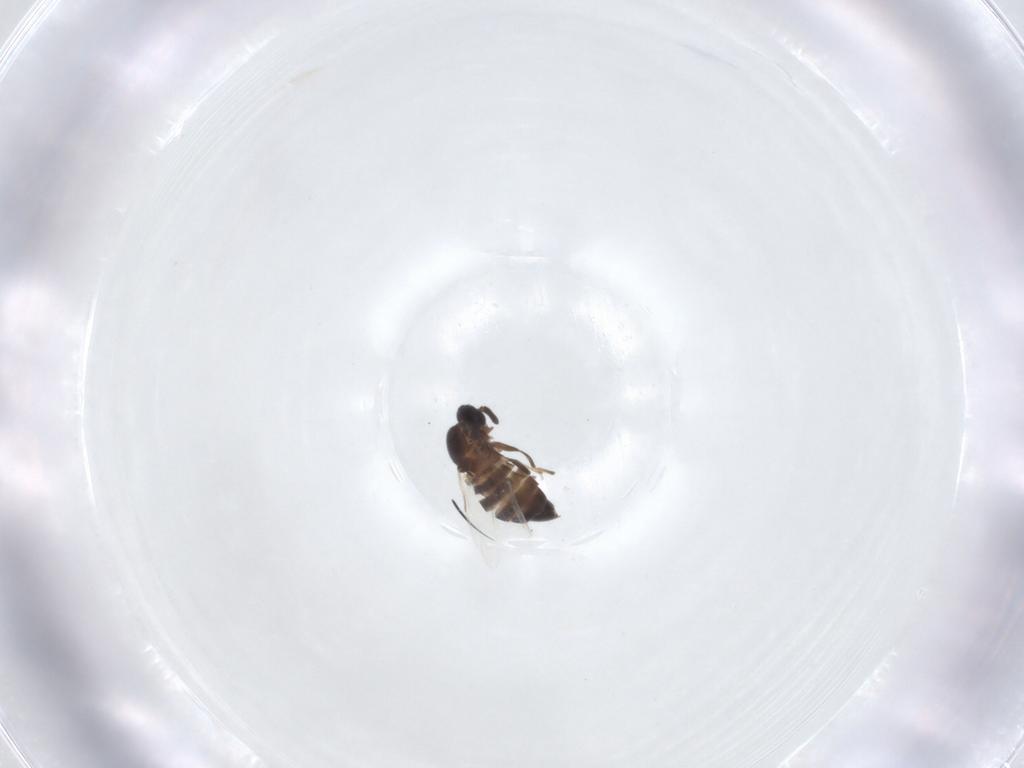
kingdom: Animalia
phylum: Arthropoda
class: Insecta
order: Diptera
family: Scatopsidae
